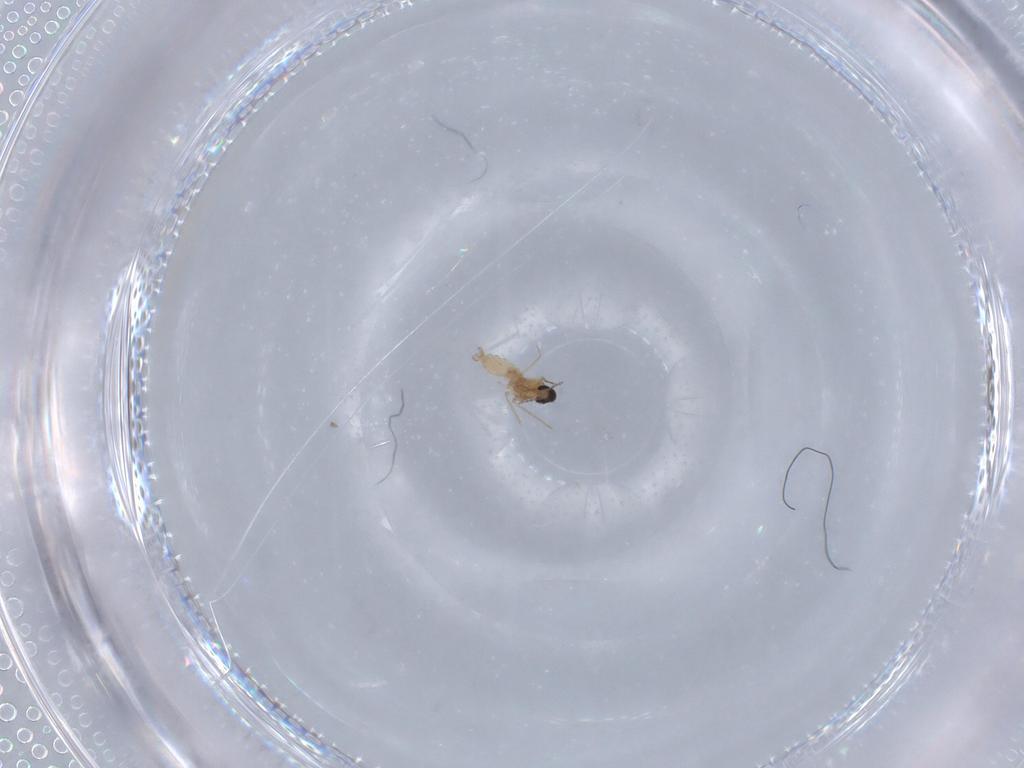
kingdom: Animalia
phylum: Arthropoda
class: Insecta
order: Diptera
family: Cecidomyiidae
